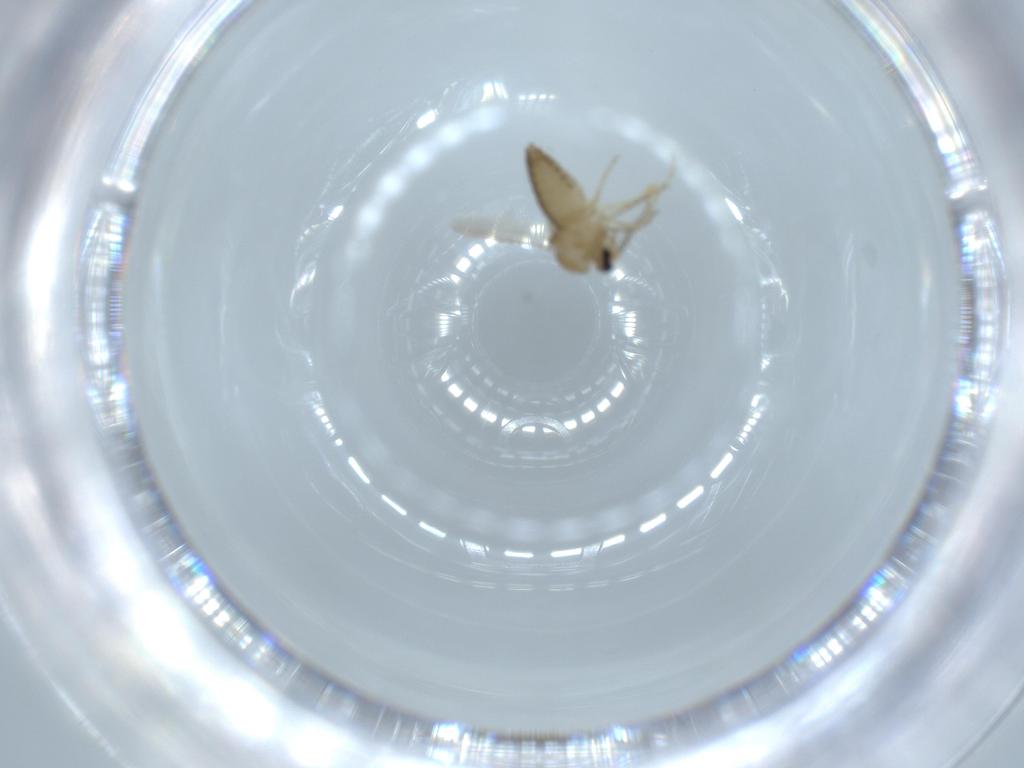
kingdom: Animalia
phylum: Arthropoda
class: Insecta
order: Diptera
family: Ceratopogonidae
